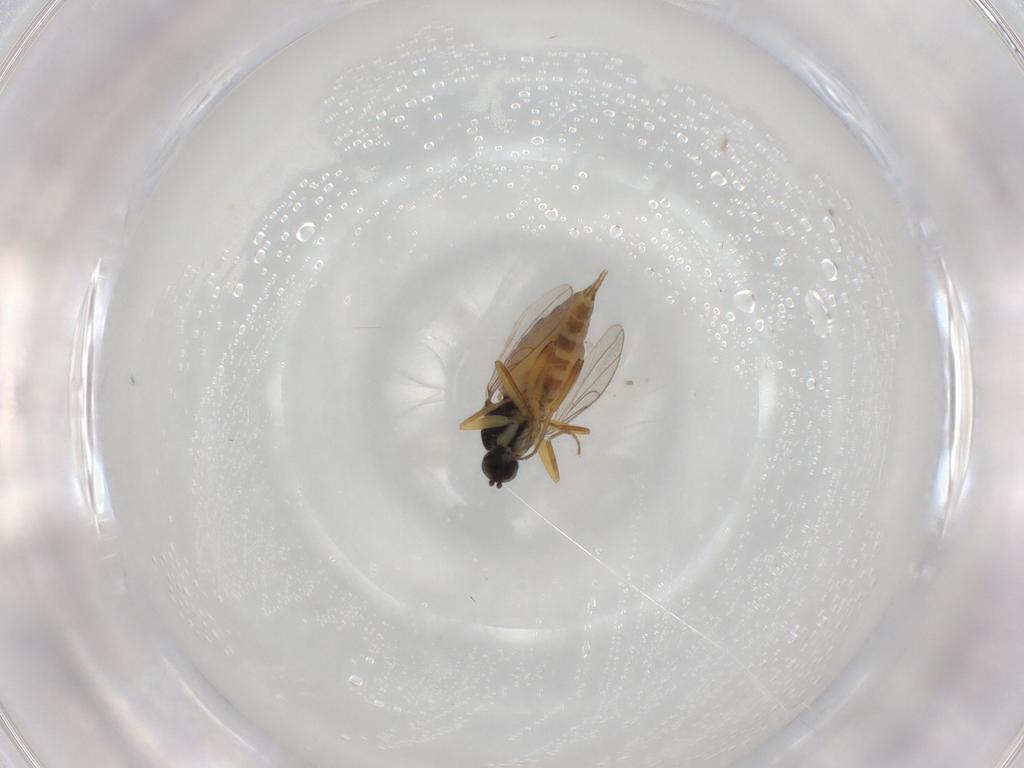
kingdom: Animalia
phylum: Arthropoda
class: Insecta
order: Diptera
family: Hybotidae
